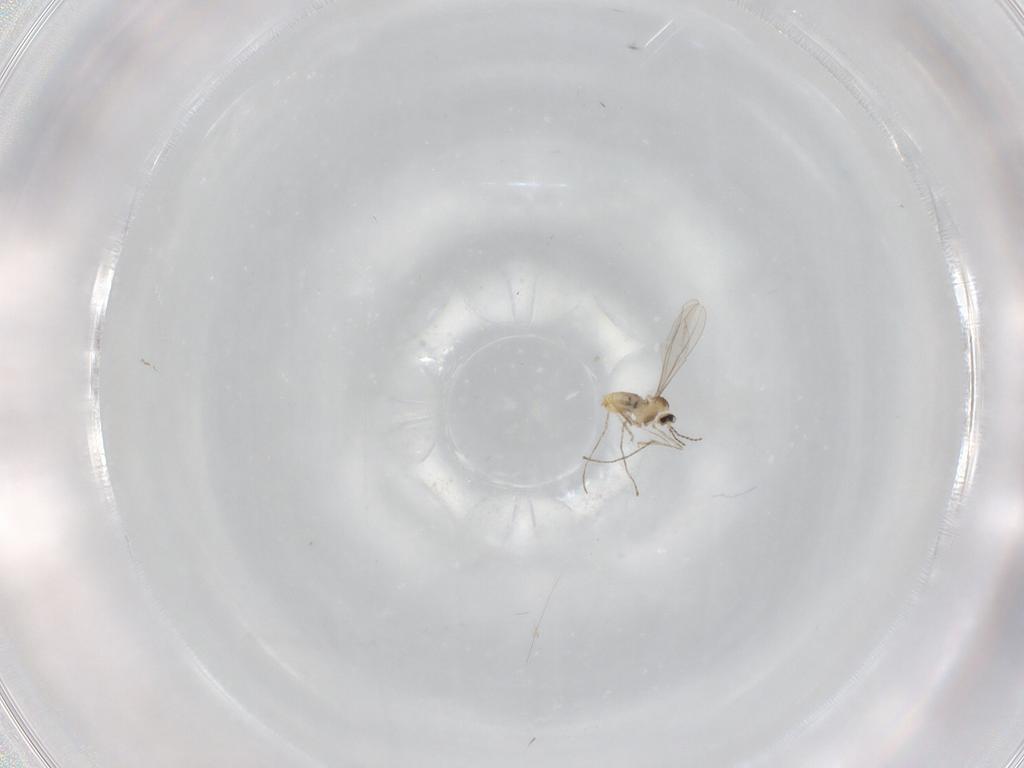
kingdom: Animalia
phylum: Arthropoda
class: Insecta
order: Diptera
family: Cecidomyiidae
